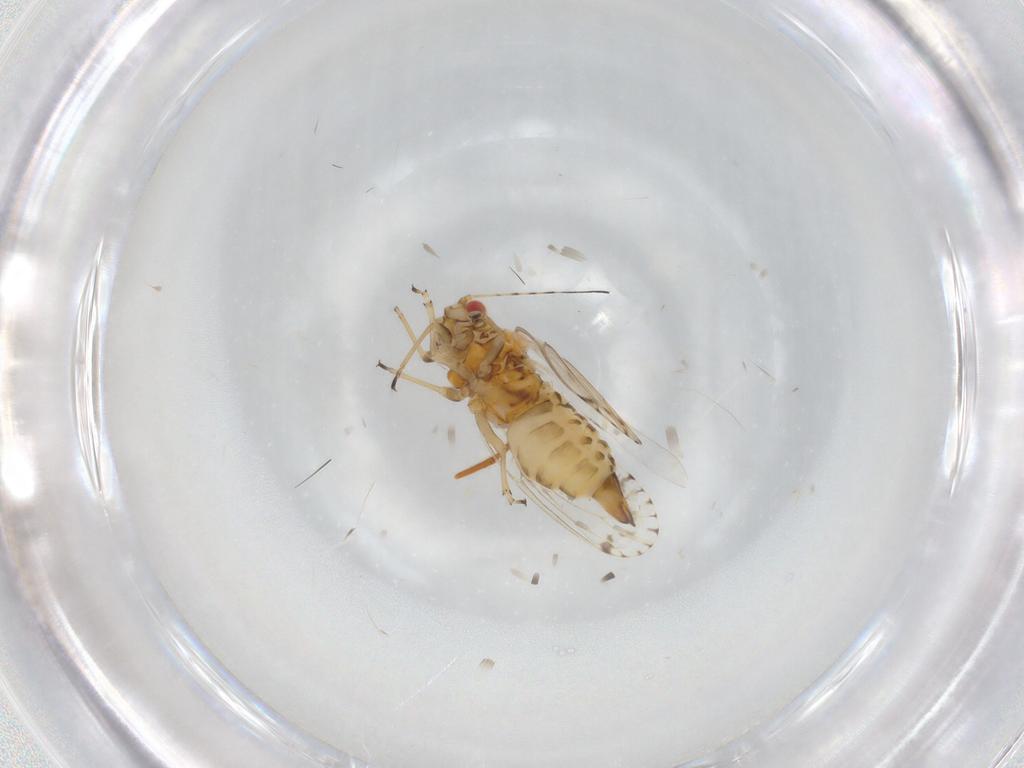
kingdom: Animalia
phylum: Arthropoda
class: Insecta
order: Hemiptera
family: Psyllidae
